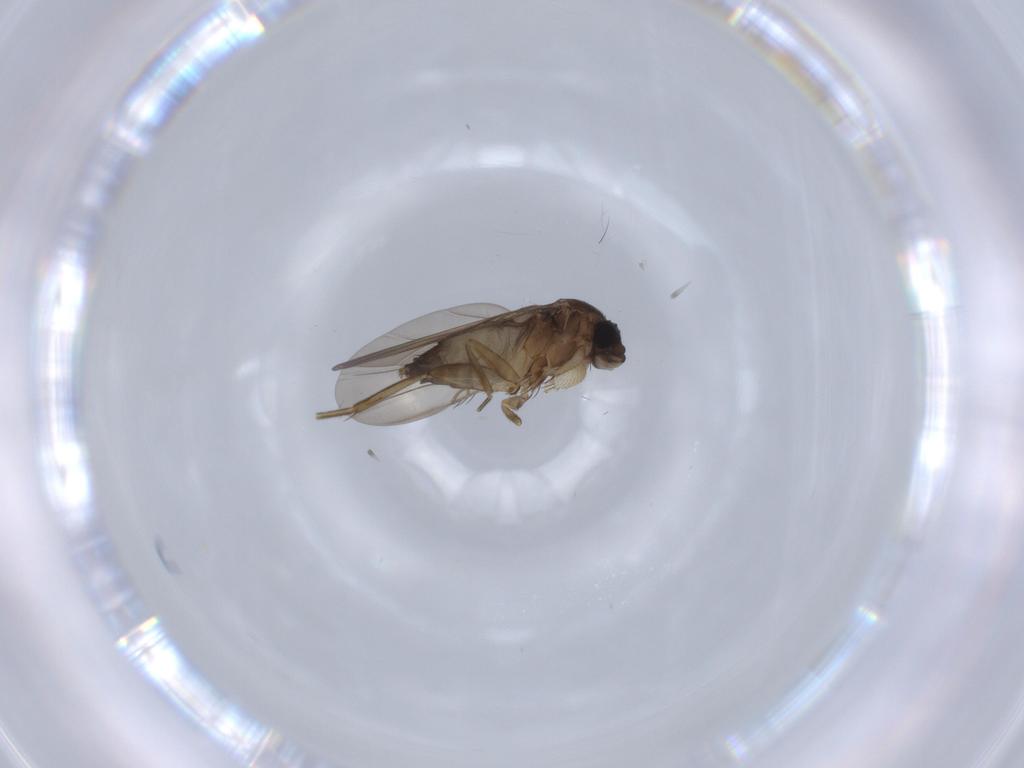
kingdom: Animalia
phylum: Arthropoda
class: Insecta
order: Diptera
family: Phoridae
